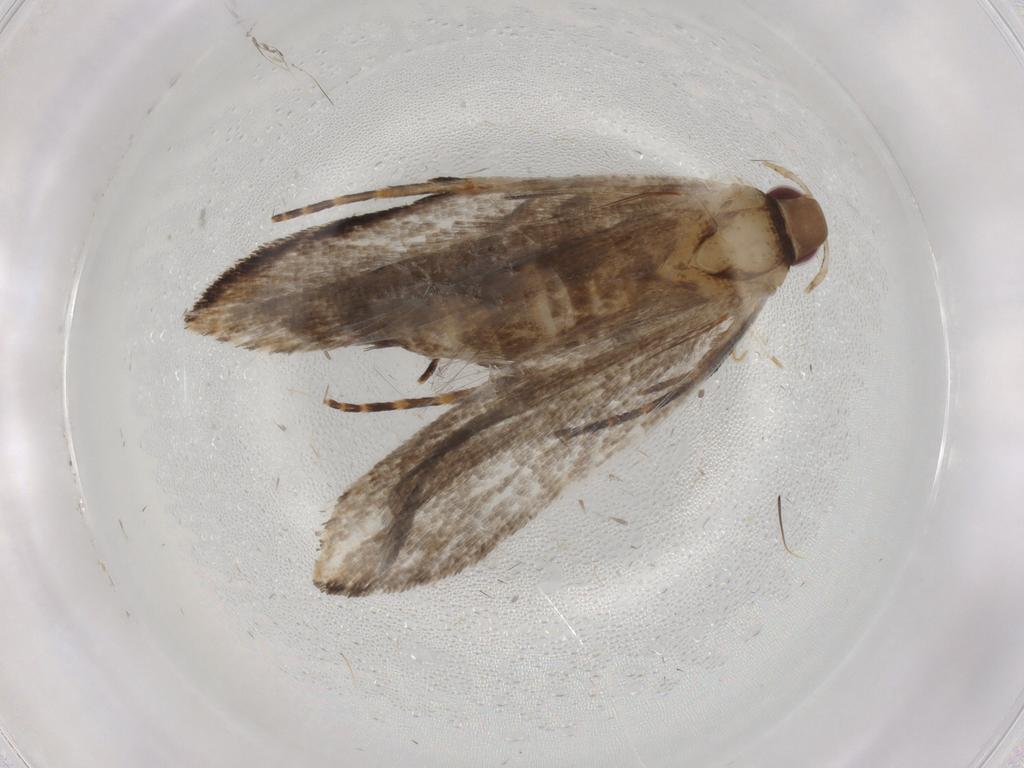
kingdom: Animalia
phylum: Arthropoda
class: Insecta
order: Lepidoptera
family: Gelechiidae
